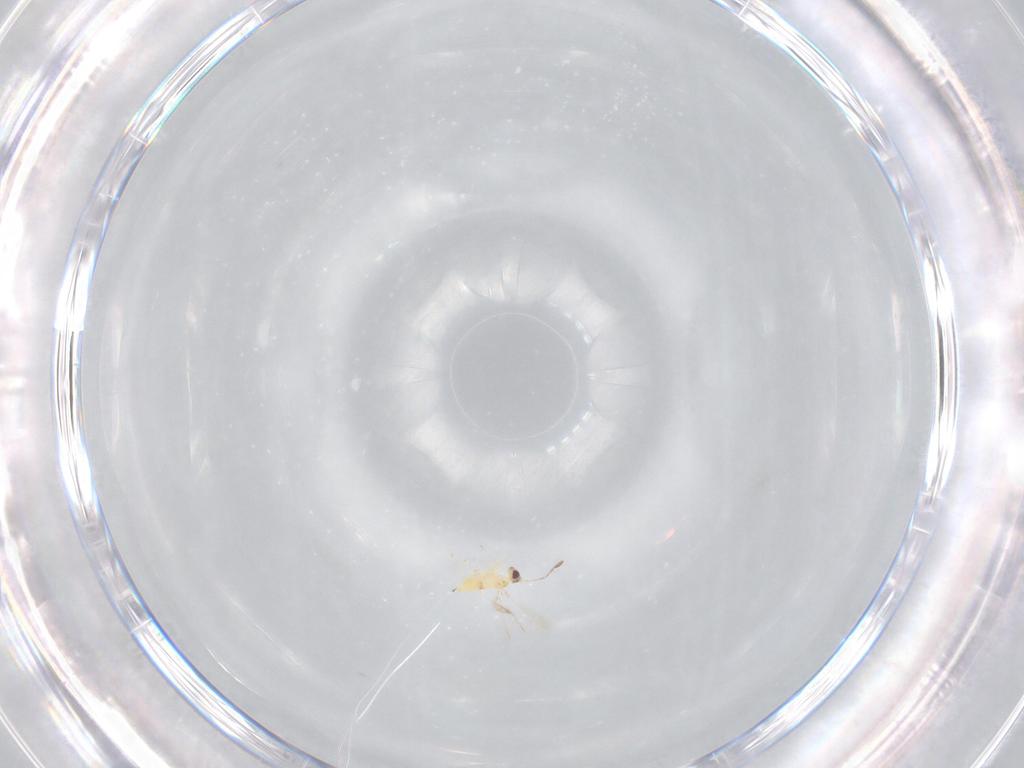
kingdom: Animalia
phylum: Arthropoda
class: Insecta
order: Hymenoptera
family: Mymaridae
